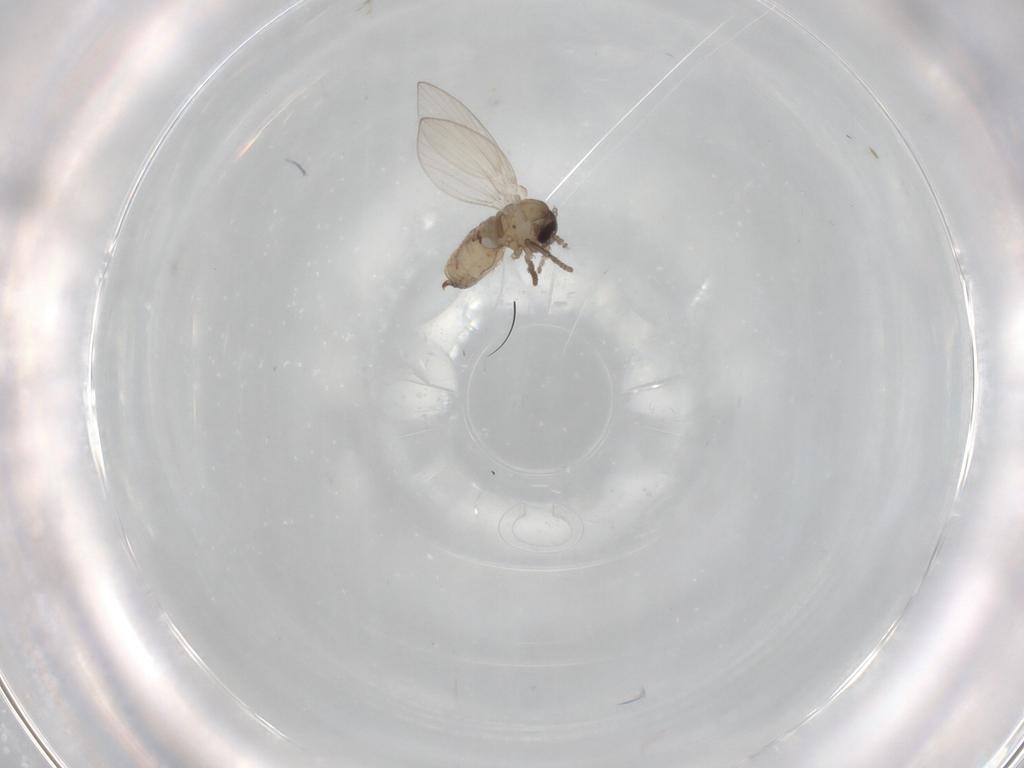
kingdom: Animalia
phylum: Arthropoda
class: Insecta
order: Diptera
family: Psychodidae
